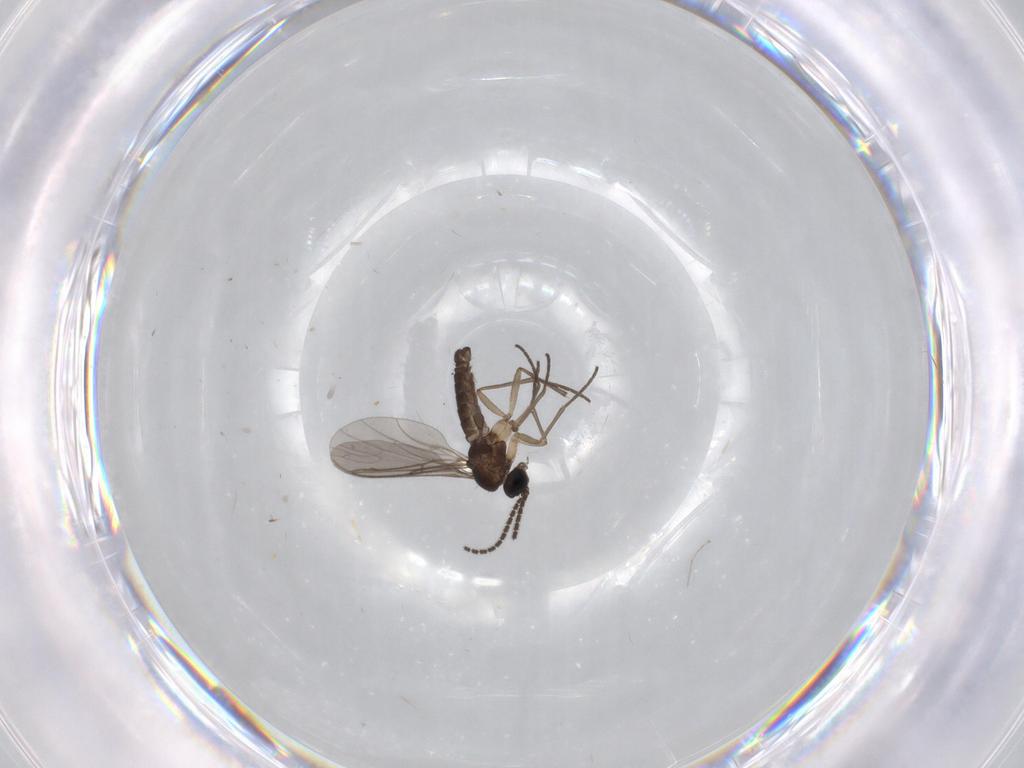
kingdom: Animalia
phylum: Arthropoda
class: Insecta
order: Diptera
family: Sciaridae
